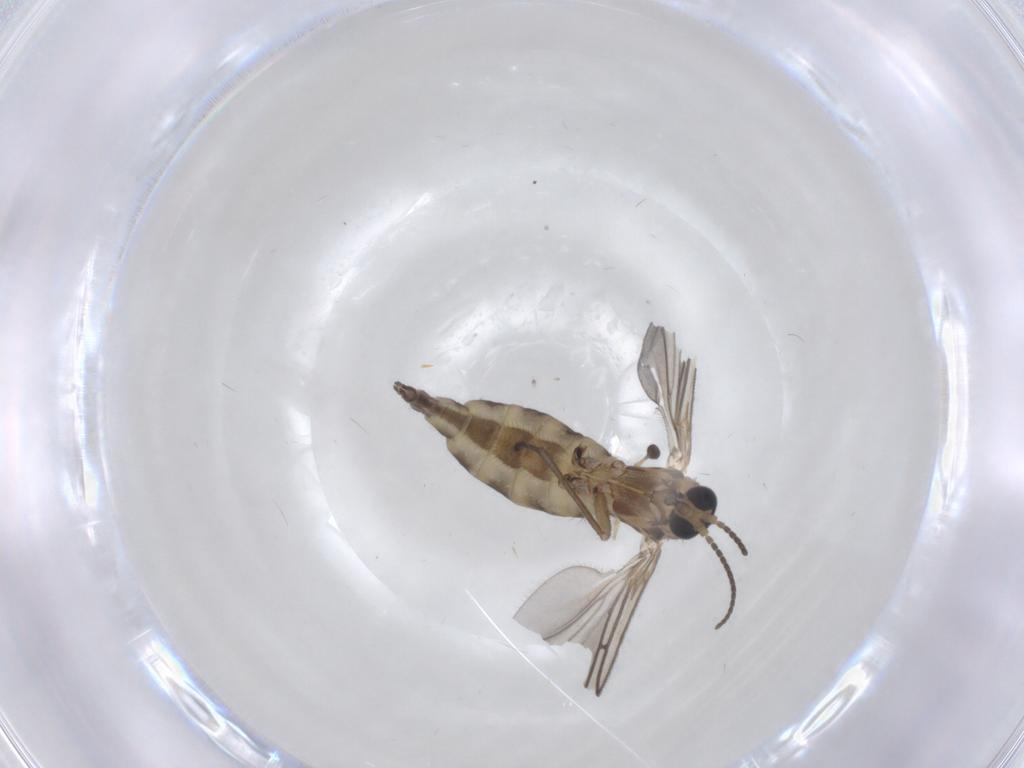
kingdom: Animalia
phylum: Arthropoda
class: Insecta
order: Diptera
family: Sciaridae
